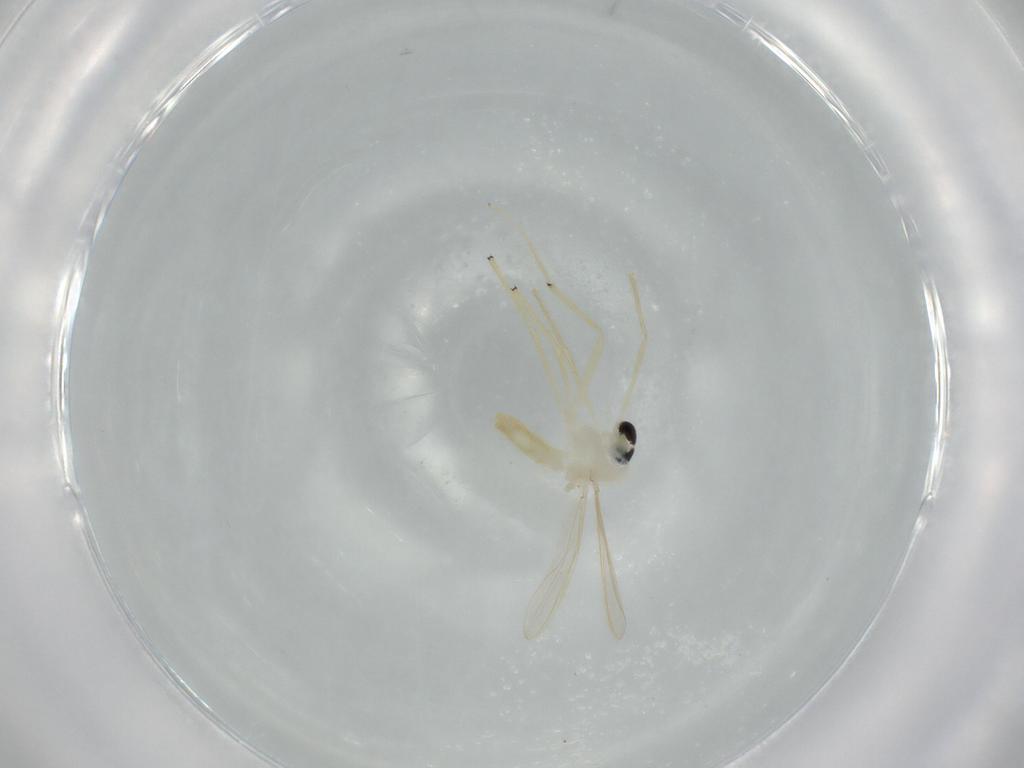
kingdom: Animalia
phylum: Arthropoda
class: Insecta
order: Diptera
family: Chironomidae
